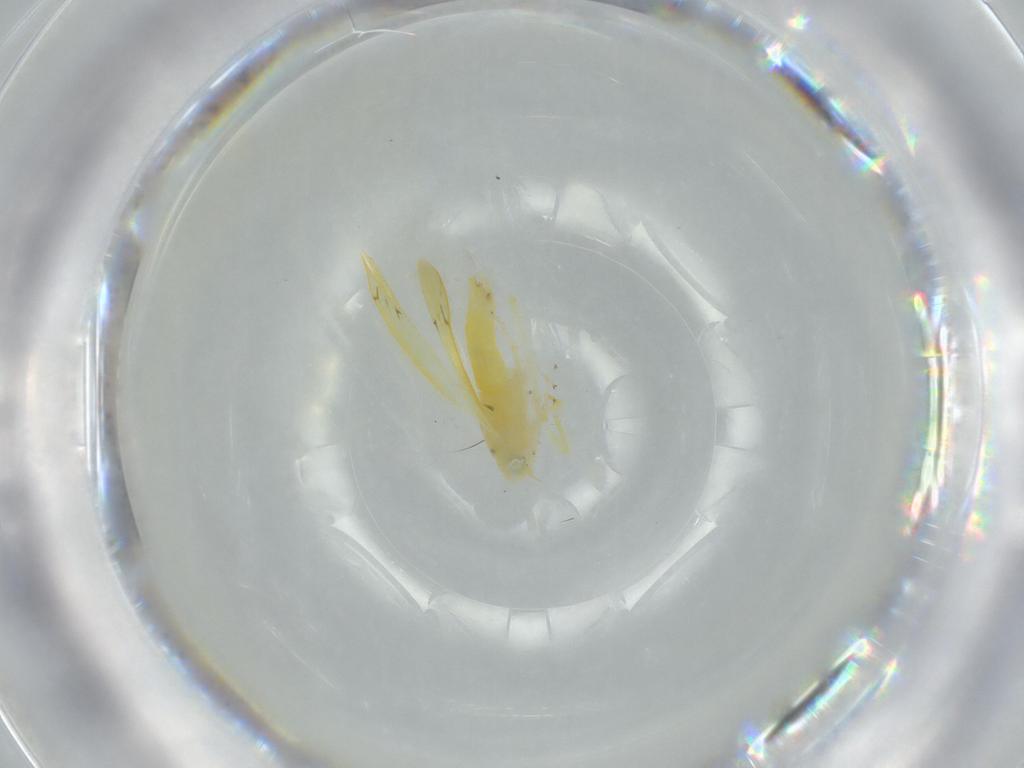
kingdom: Animalia
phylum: Arthropoda
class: Insecta
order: Hemiptera
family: Cicadellidae
